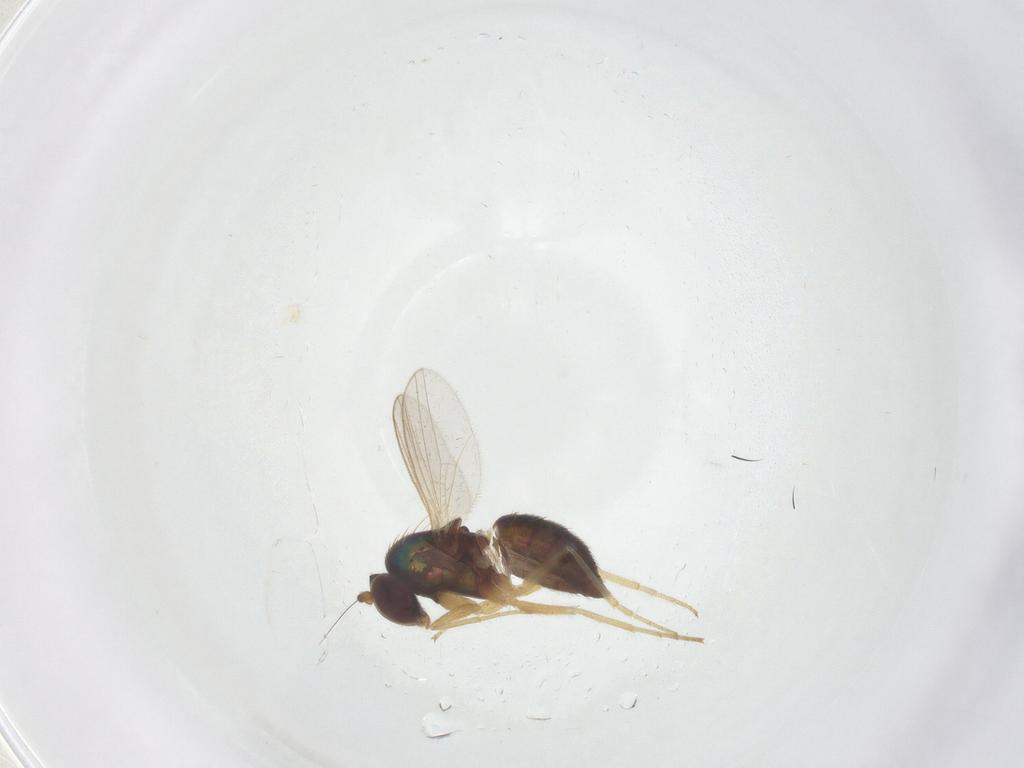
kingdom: Animalia
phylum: Arthropoda
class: Insecta
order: Diptera
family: Dolichopodidae
